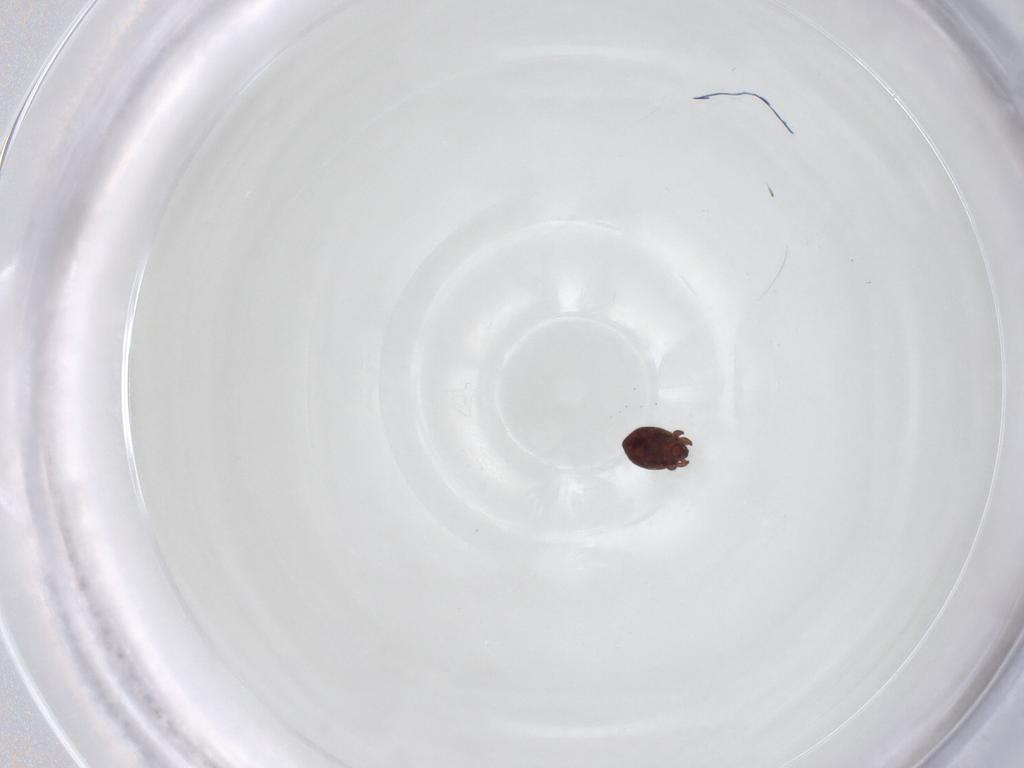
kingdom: Animalia
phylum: Arthropoda
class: Arachnida
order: Sarcoptiformes
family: Achipteriidae
